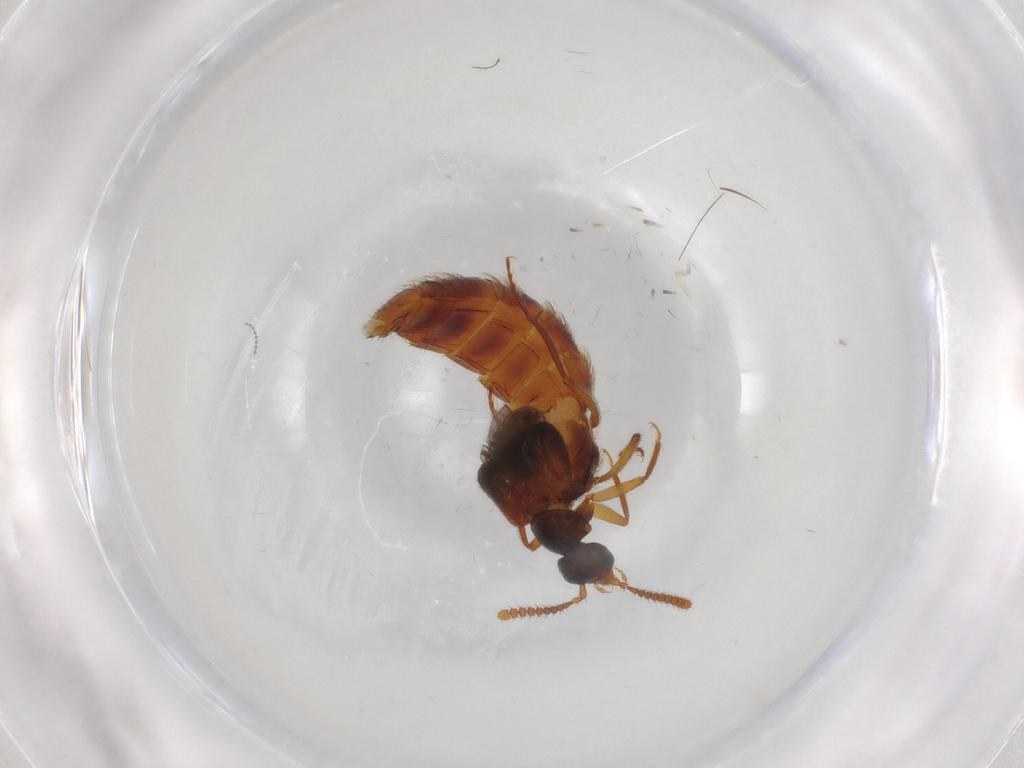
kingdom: Animalia
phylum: Arthropoda
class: Insecta
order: Coleoptera
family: Staphylinidae
